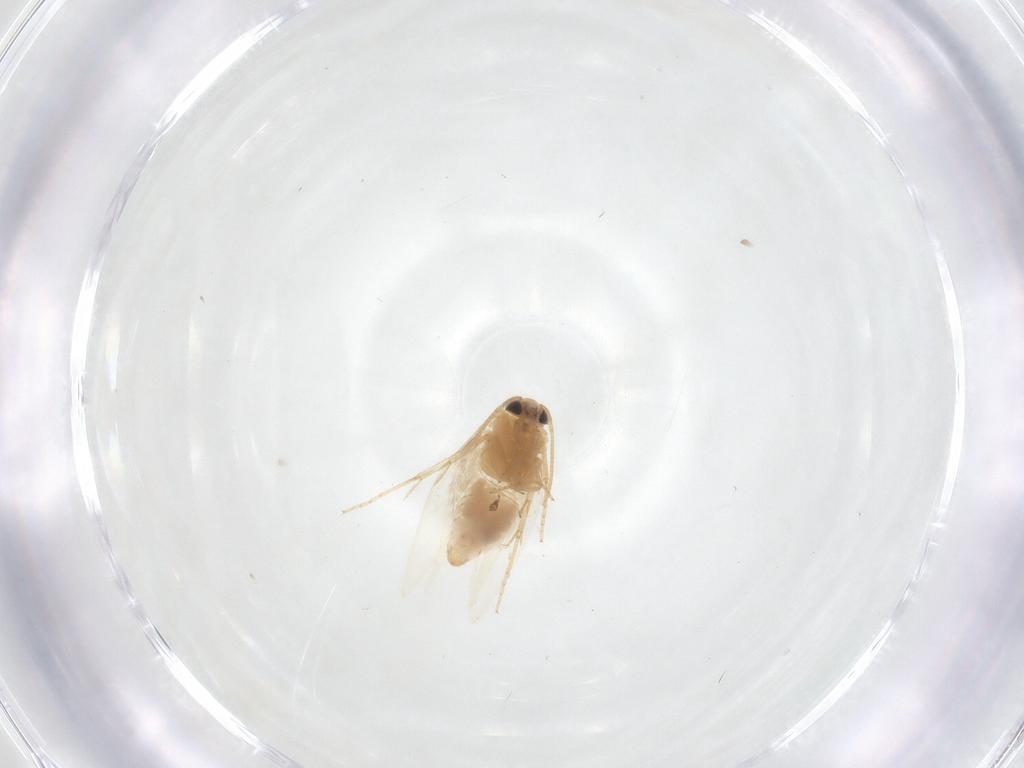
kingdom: Animalia
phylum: Arthropoda
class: Insecta
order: Lepidoptera
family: Nepticulidae
